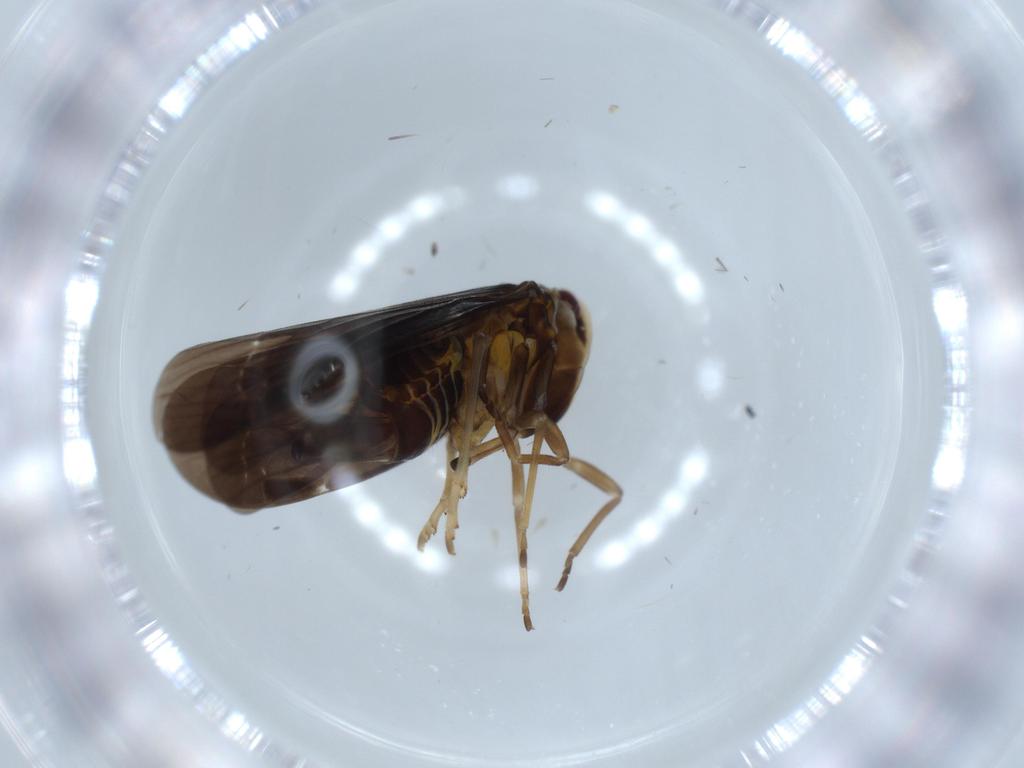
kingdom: Animalia
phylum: Arthropoda
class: Insecta
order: Hemiptera
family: Derbidae
